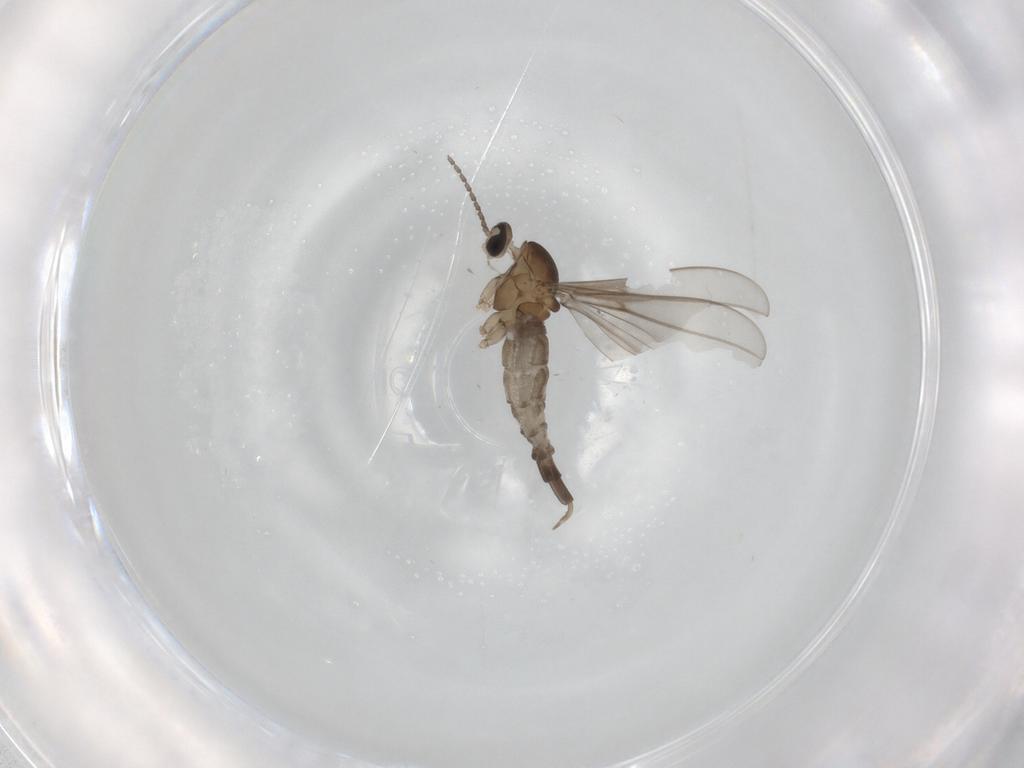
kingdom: Animalia
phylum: Arthropoda
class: Insecta
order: Diptera
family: Cecidomyiidae
